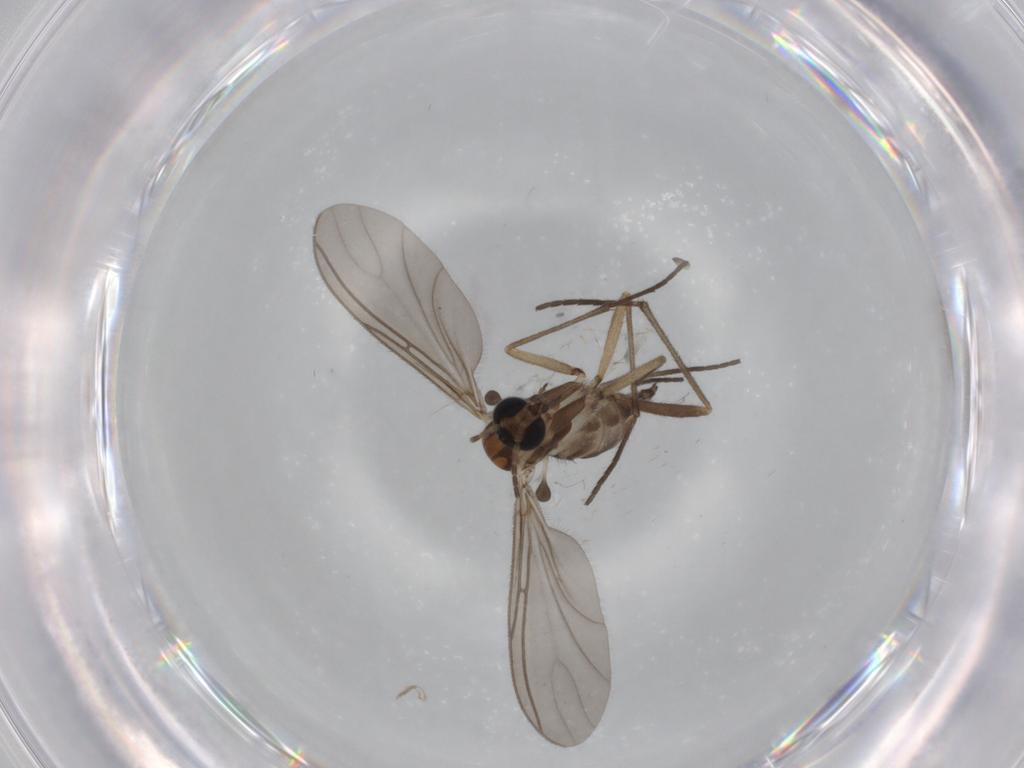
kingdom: Animalia
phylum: Arthropoda
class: Insecta
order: Diptera
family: Sciaridae
